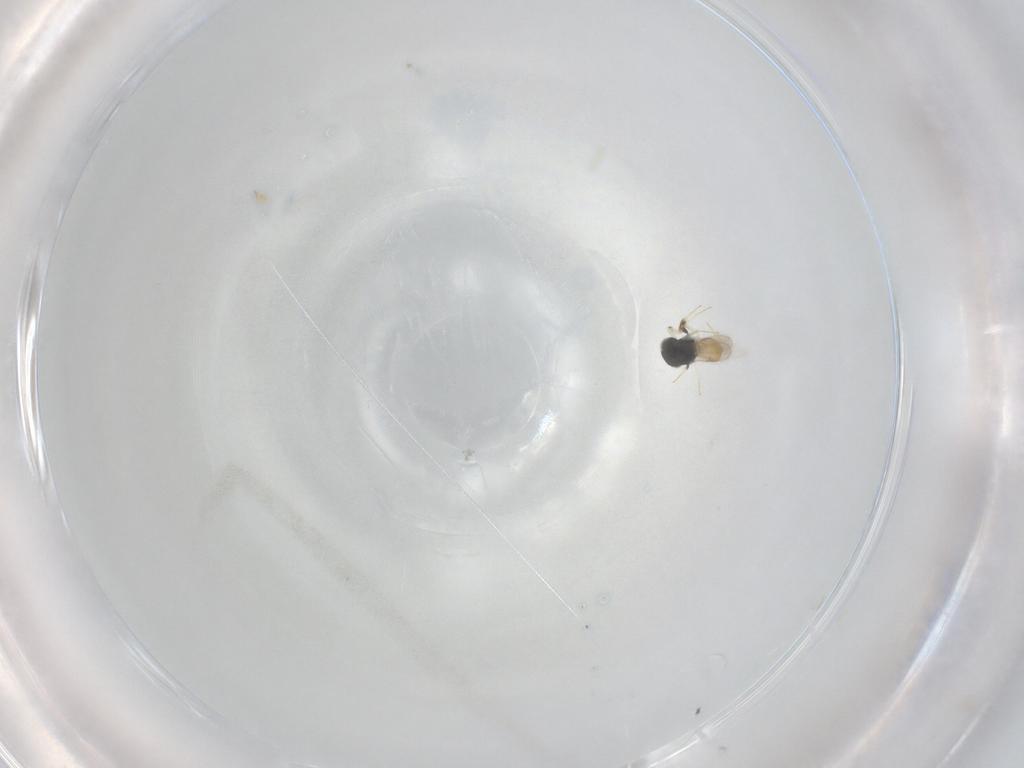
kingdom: Animalia
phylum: Arthropoda
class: Insecta
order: Hymenoptera
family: Scelionidae
